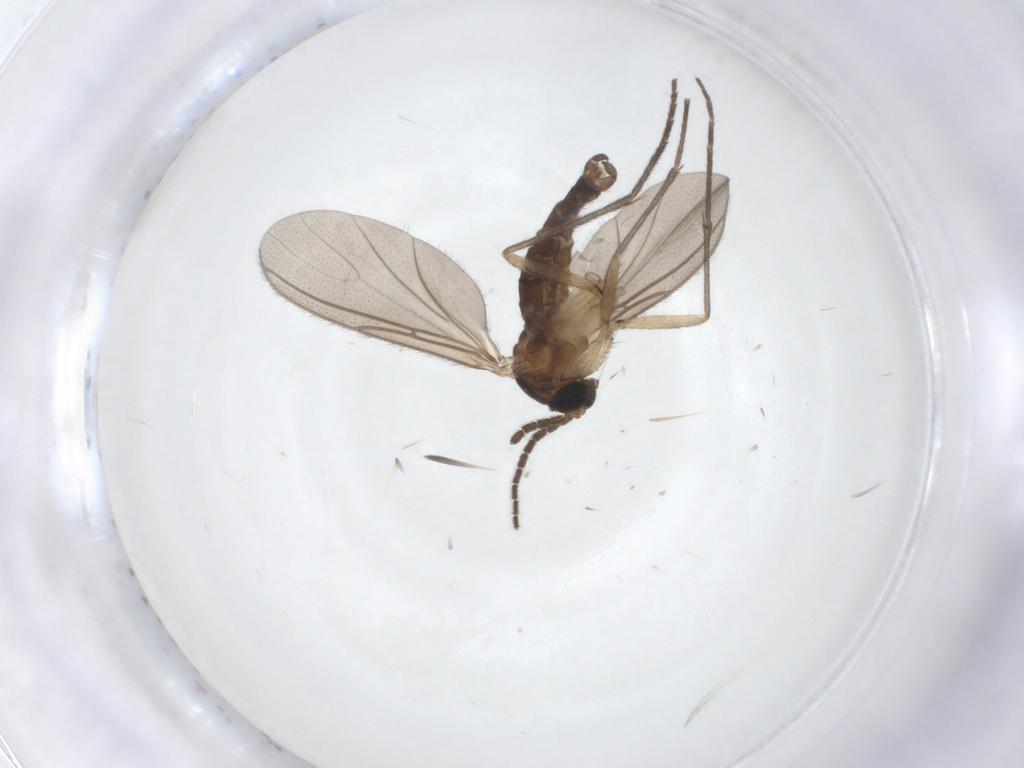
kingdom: Animalia
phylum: Arthropoda
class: Insecta
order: Diptera
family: Sciaridae
